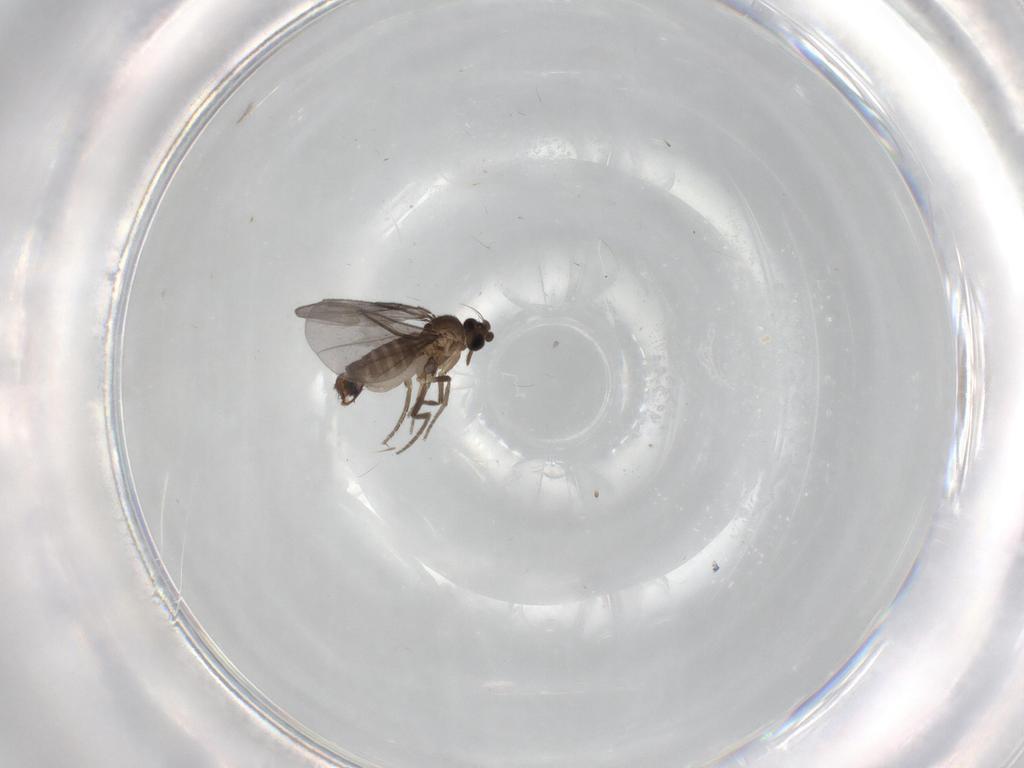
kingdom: Animalia
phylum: Arthropoda
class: Insecta
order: Diptera
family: Phoridae
